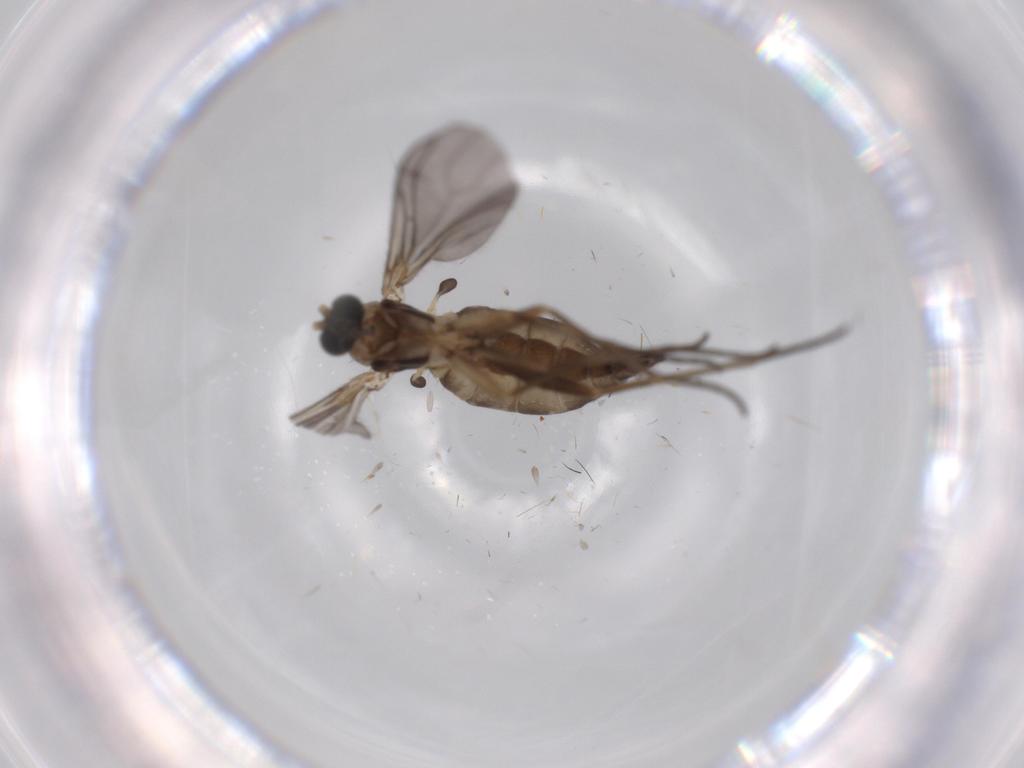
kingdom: Animalia
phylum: Arthropoda
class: Insecta
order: Diptera
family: Sciaridae
